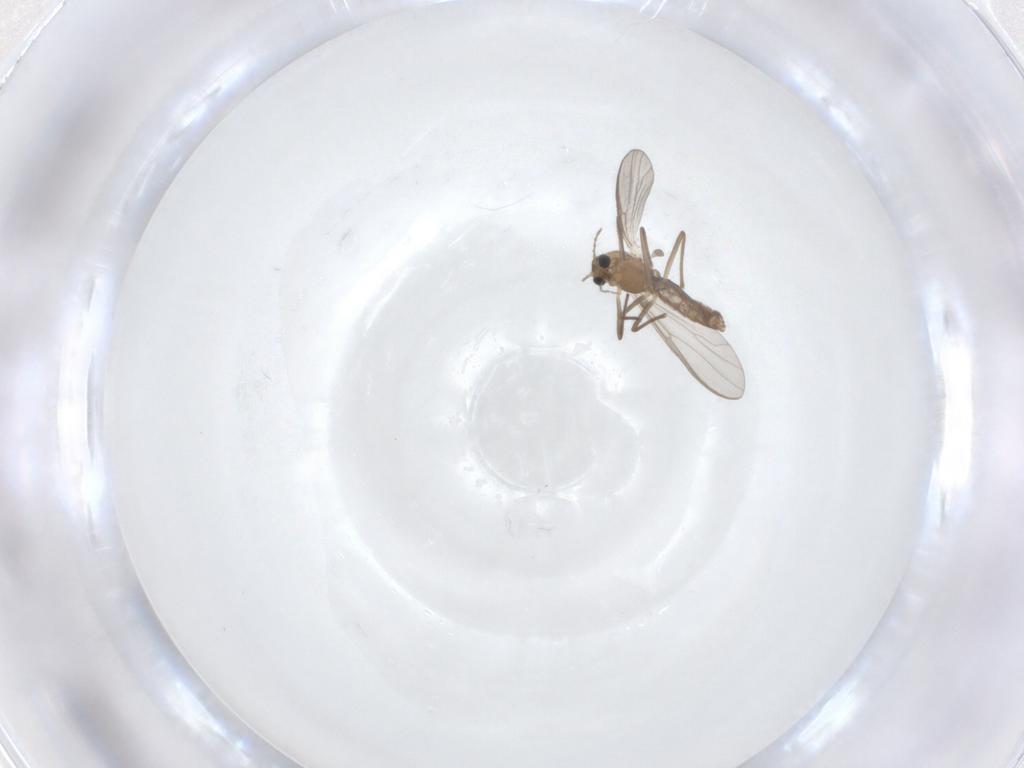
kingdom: Animalia
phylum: Arthropoda
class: Insecta
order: Diptera
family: Chironomidae
